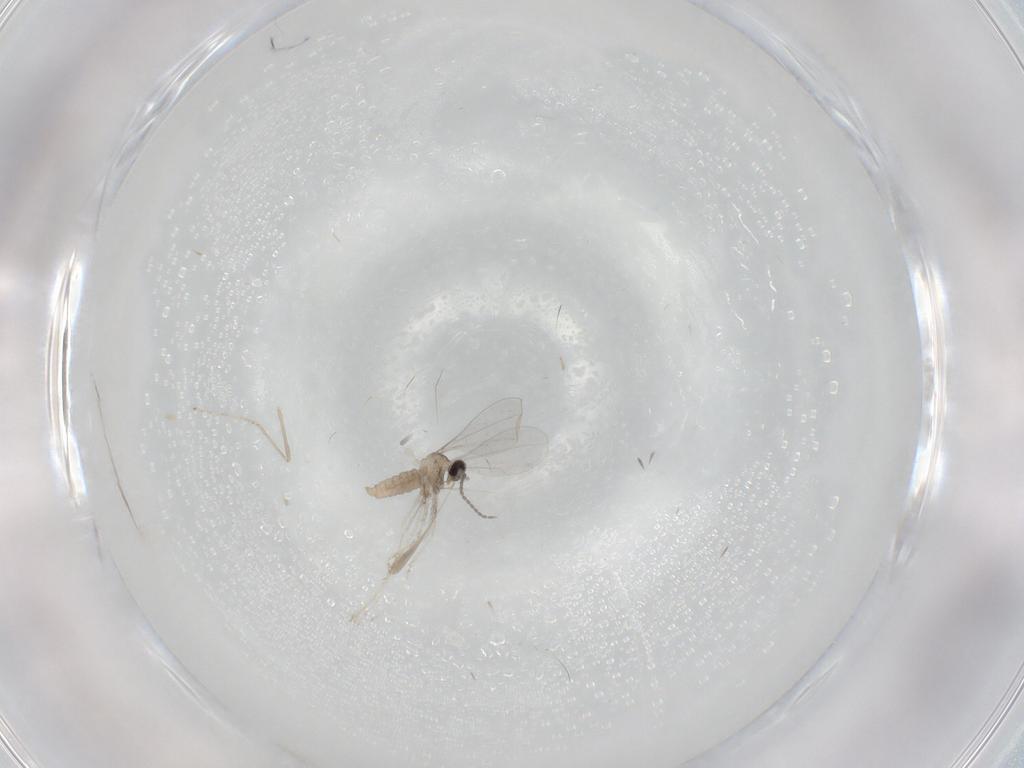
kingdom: Animalia
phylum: Arthropoda
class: Insecta
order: Diptera
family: Cecidomyiidae
